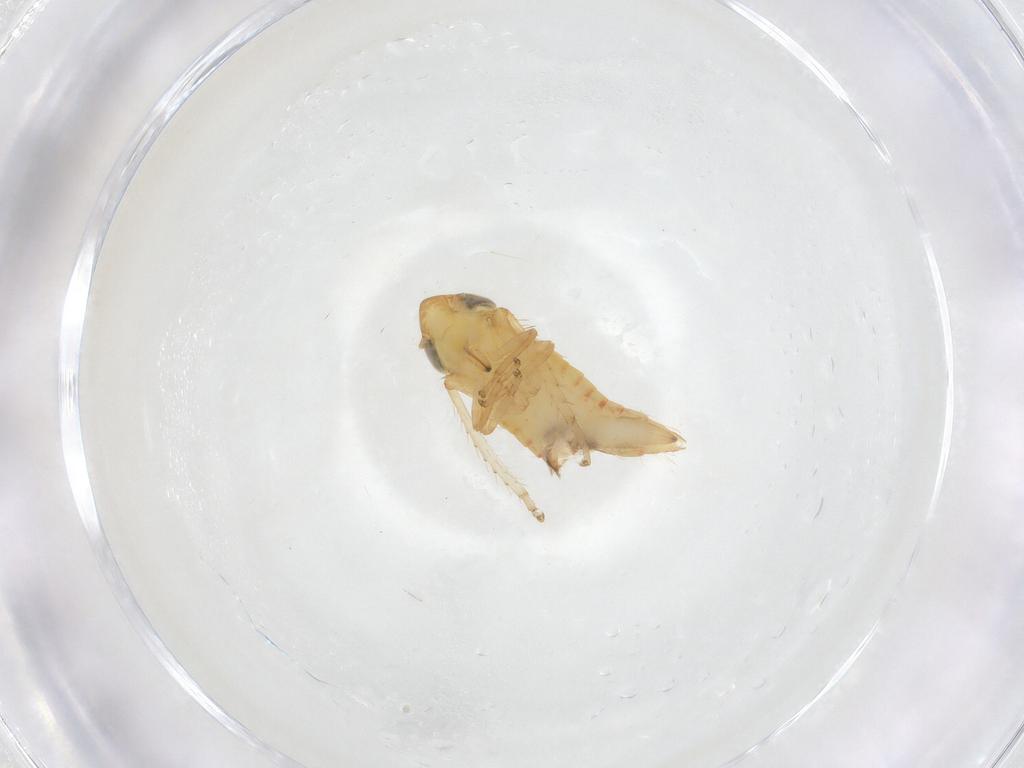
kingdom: Animalia
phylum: Arthropoda
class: Insecta
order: Hemiptera
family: Cicadellidae
